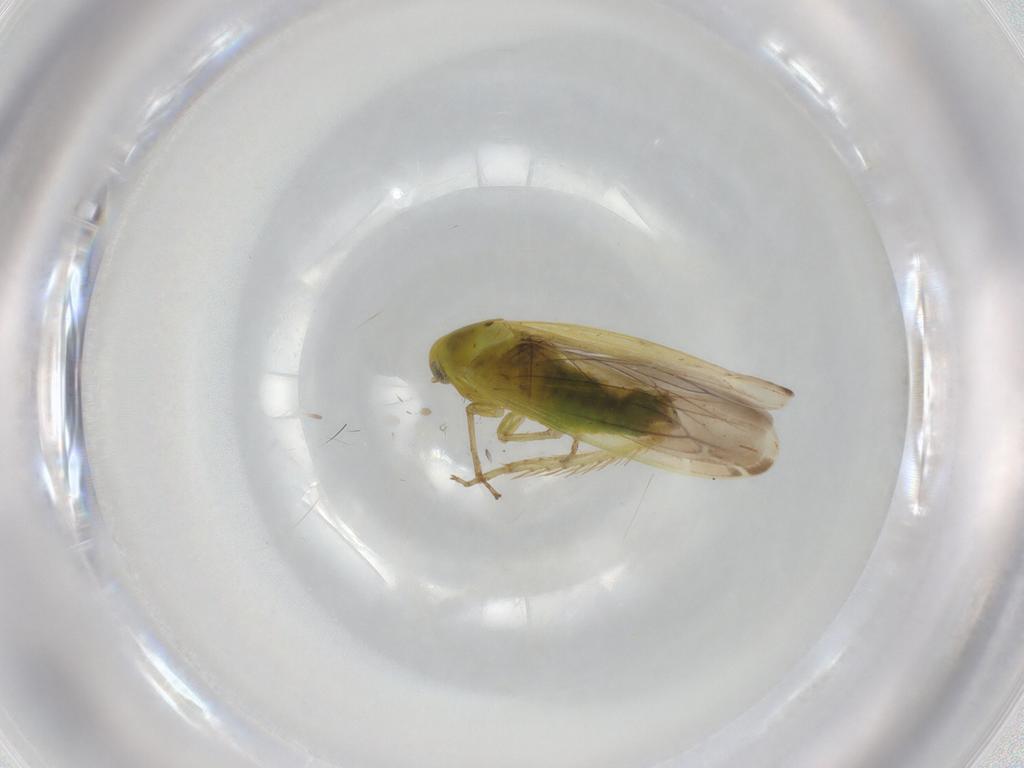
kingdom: Animalia
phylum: Arthropoda
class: Insecta
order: Hemiptera
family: Cicadellidae
